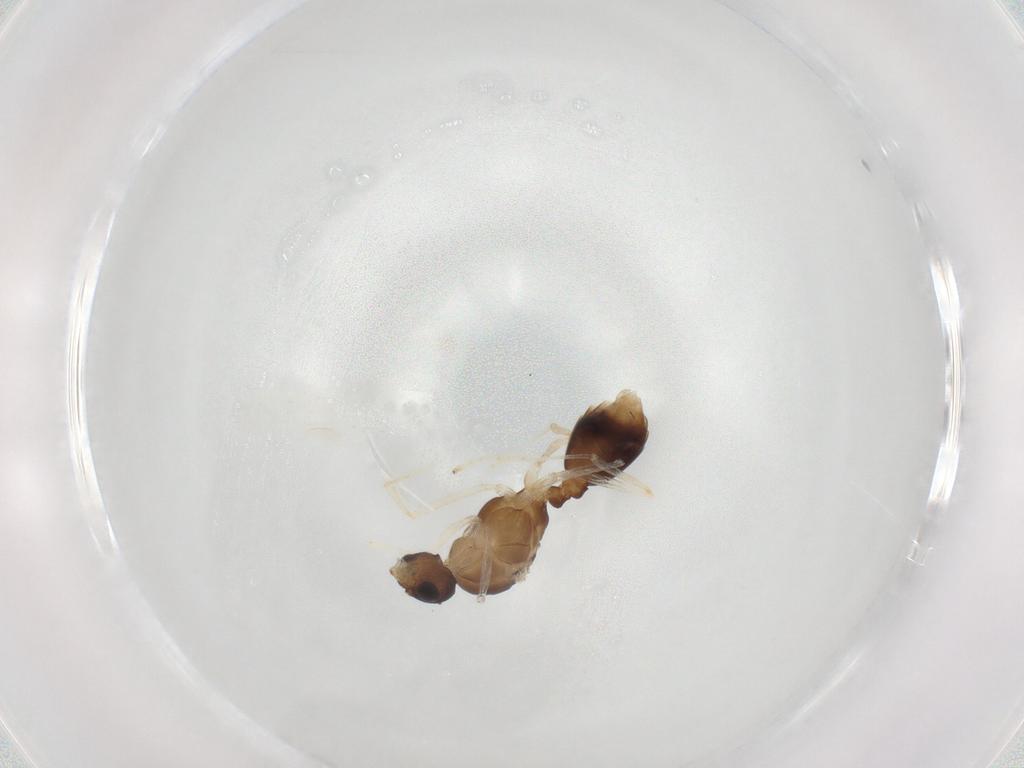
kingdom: Animalia
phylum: Arthropoda
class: Insecta
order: Hymenoptera
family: Formicidae
